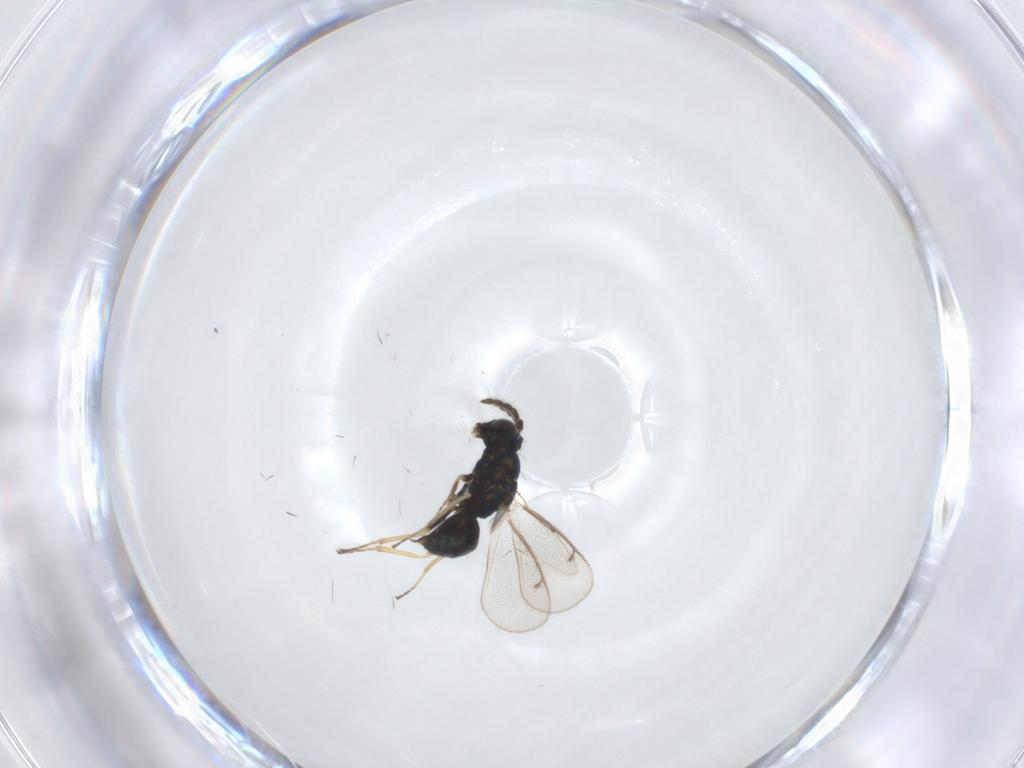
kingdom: Animalia
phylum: Arthropoda
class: Insecta
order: Hymenoptera
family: Eulophidae
